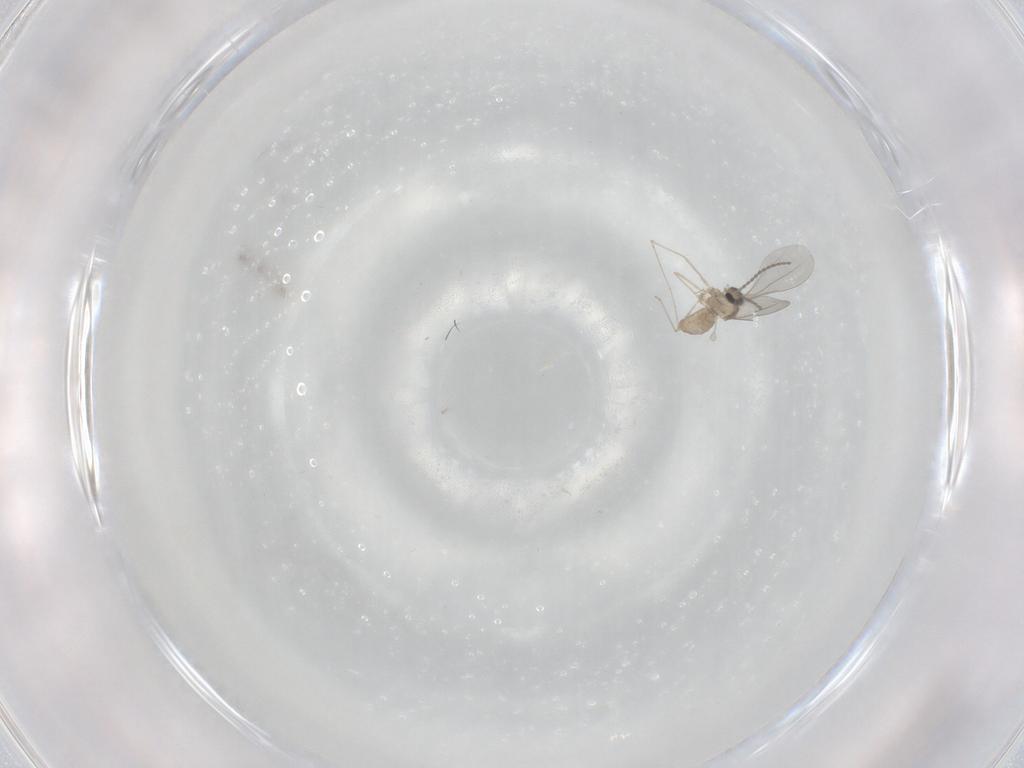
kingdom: Animalia
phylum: Arthropoda
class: Insecta
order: Diptera
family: Cecidomyiidae
